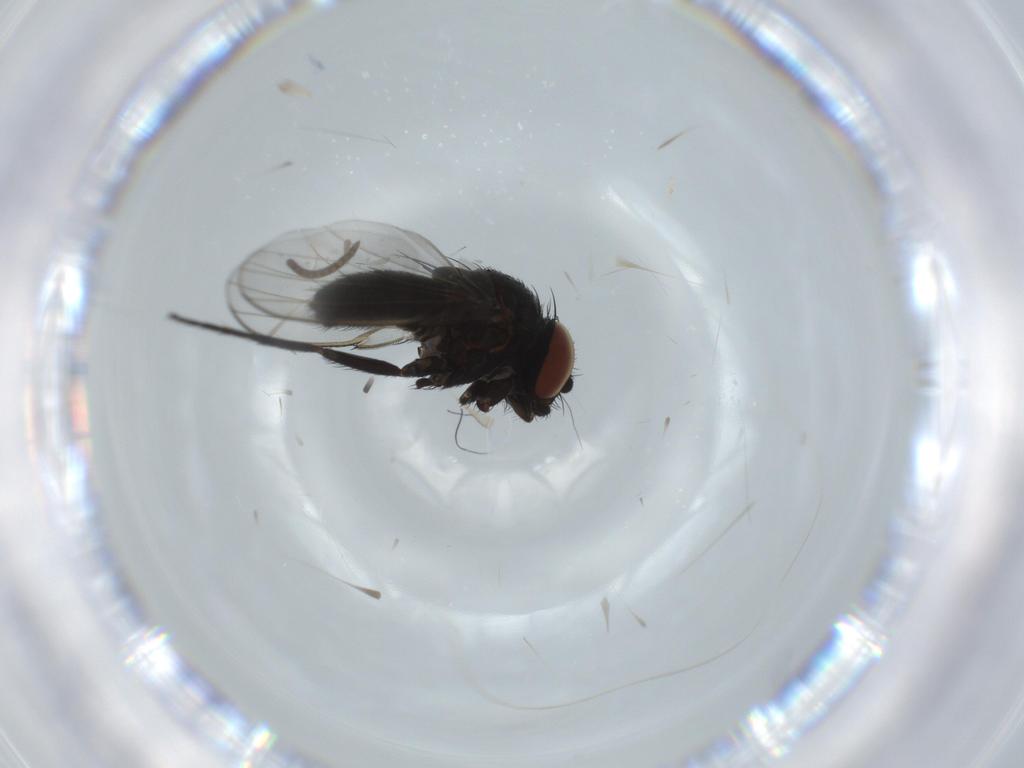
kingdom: Animalia
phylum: Arthropoda
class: Insecta
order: Diptera
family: Milichiidae
